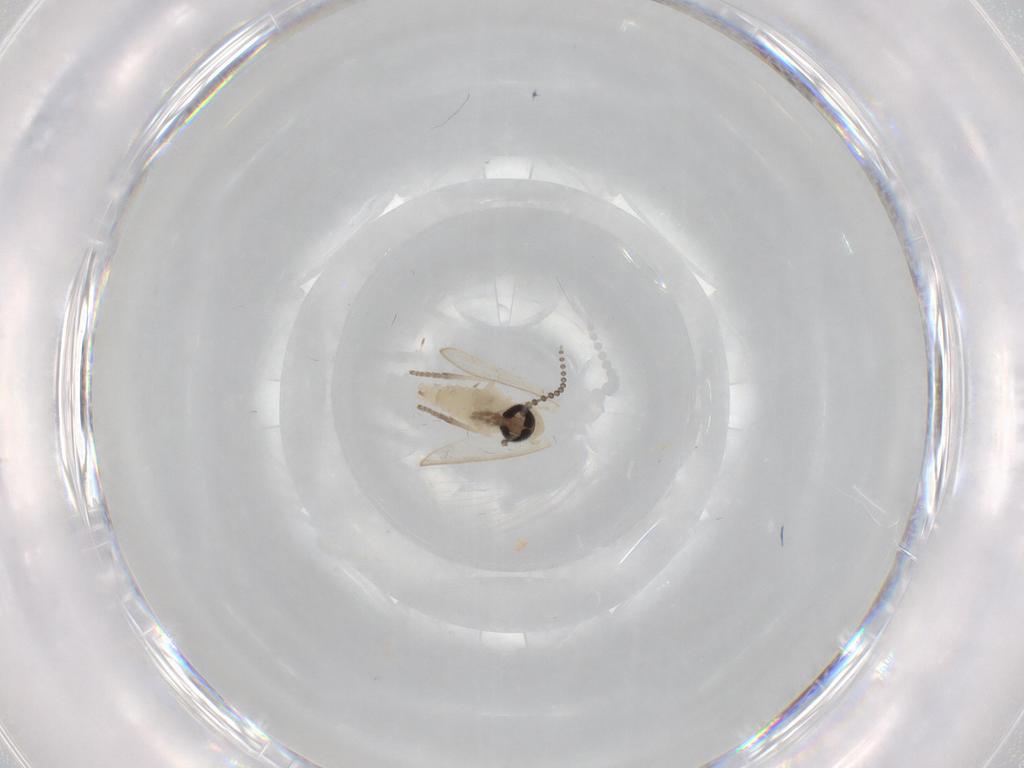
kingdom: Animalia
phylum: Arthropoda
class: Insecta
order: Diptera
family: Psychodidae
